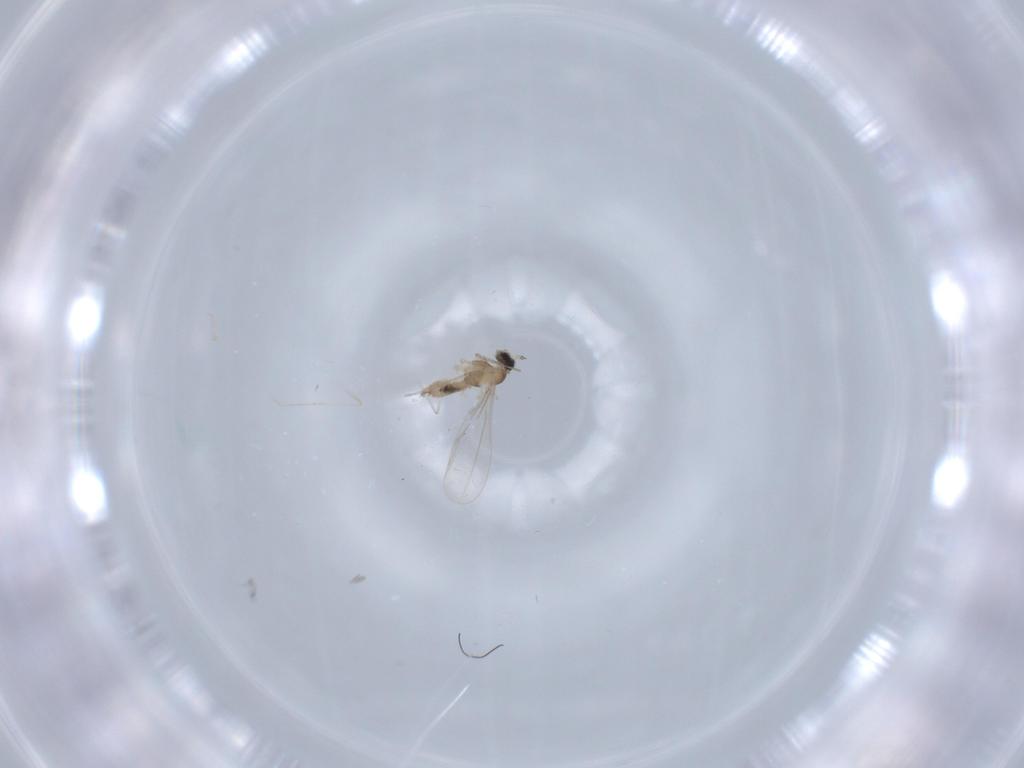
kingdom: Animalia
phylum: Arthropoda
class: Insecta
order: Diptera
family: Cecidomyiidae
